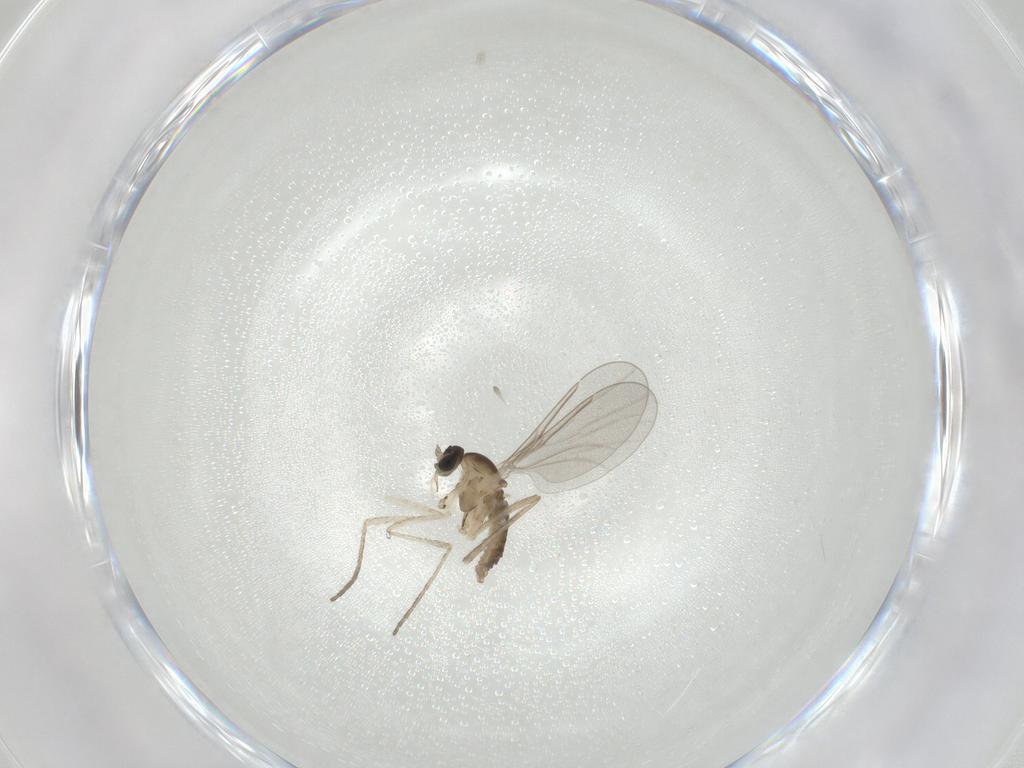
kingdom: Animalia
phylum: Arthropoda
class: Insecta
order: Diptera
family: Cecidomyiidae
